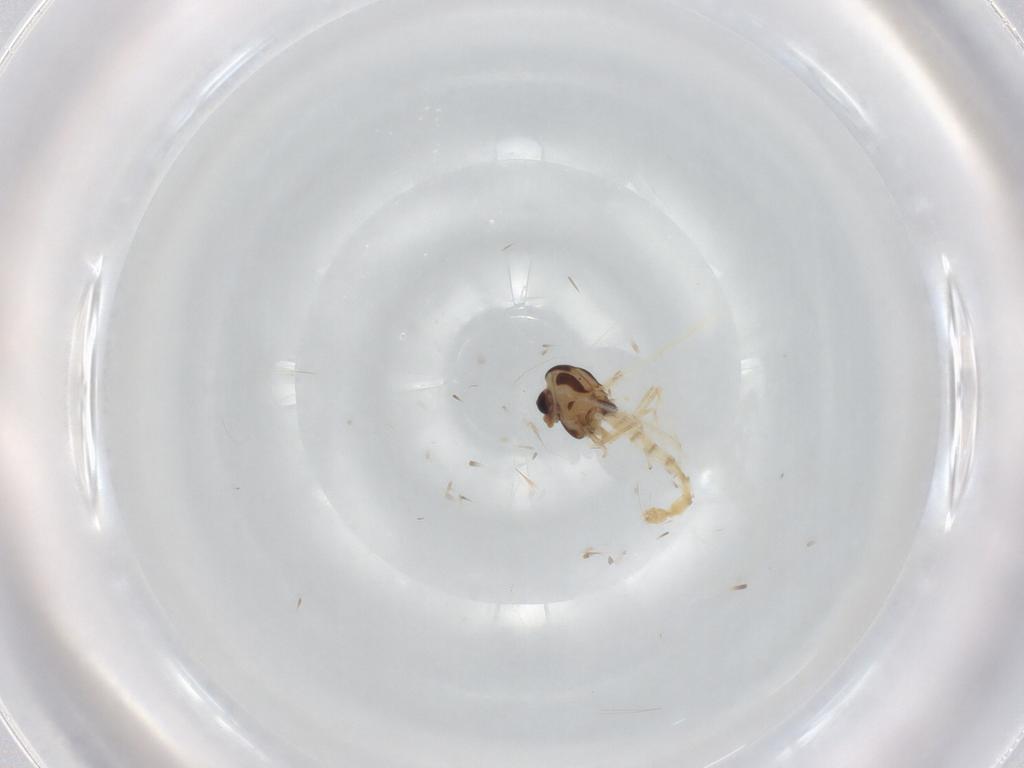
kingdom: Animalia
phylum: Arthropoda
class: Insecta
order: Diptera
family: Chironomidae
